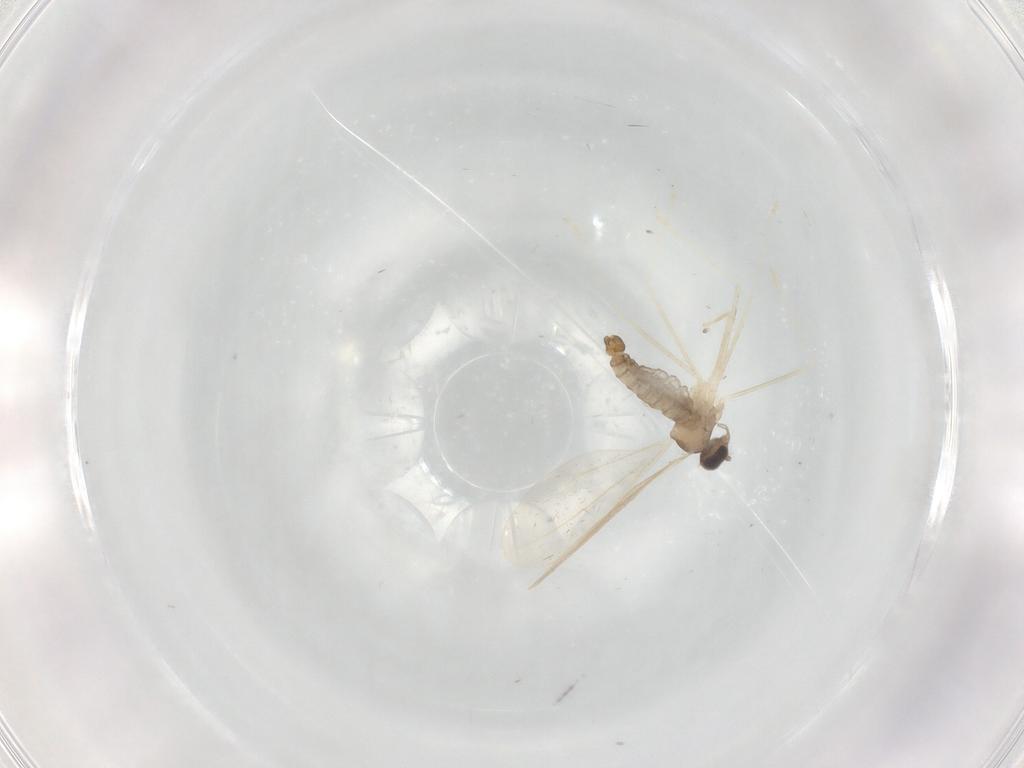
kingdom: Animalia
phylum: Arthropoda
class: Insecta
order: Diptera
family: Cecidomyiidae
